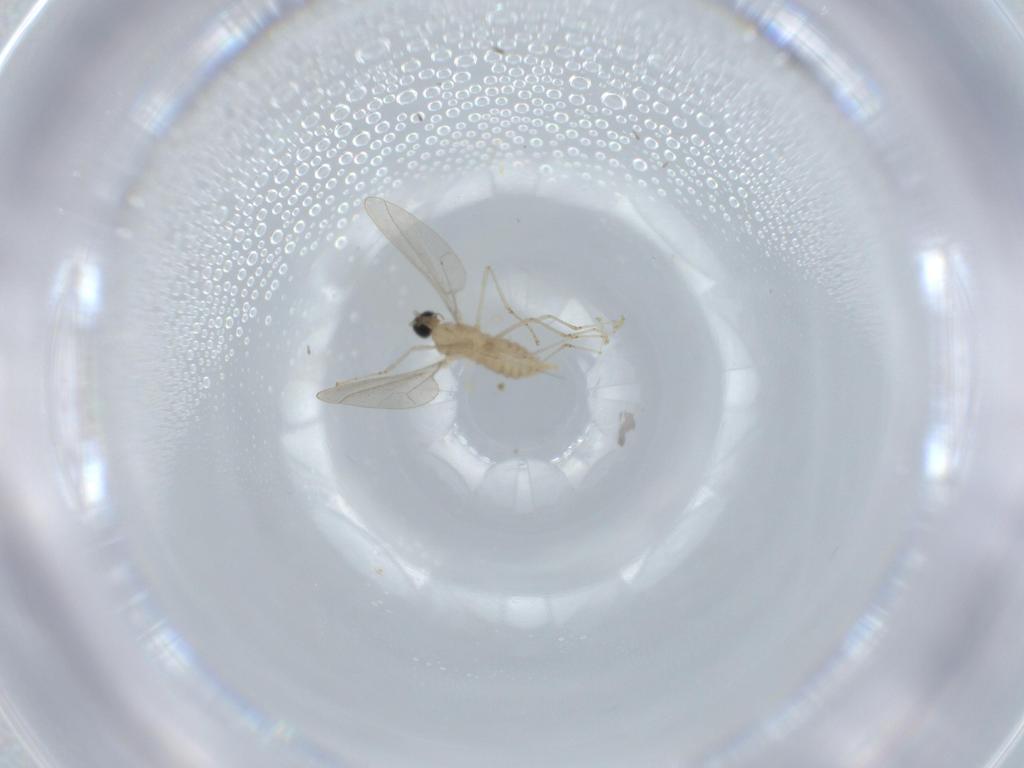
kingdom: Animalia
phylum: Arthropoda
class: Insecta
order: Diptera
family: Cecidomyiidae
